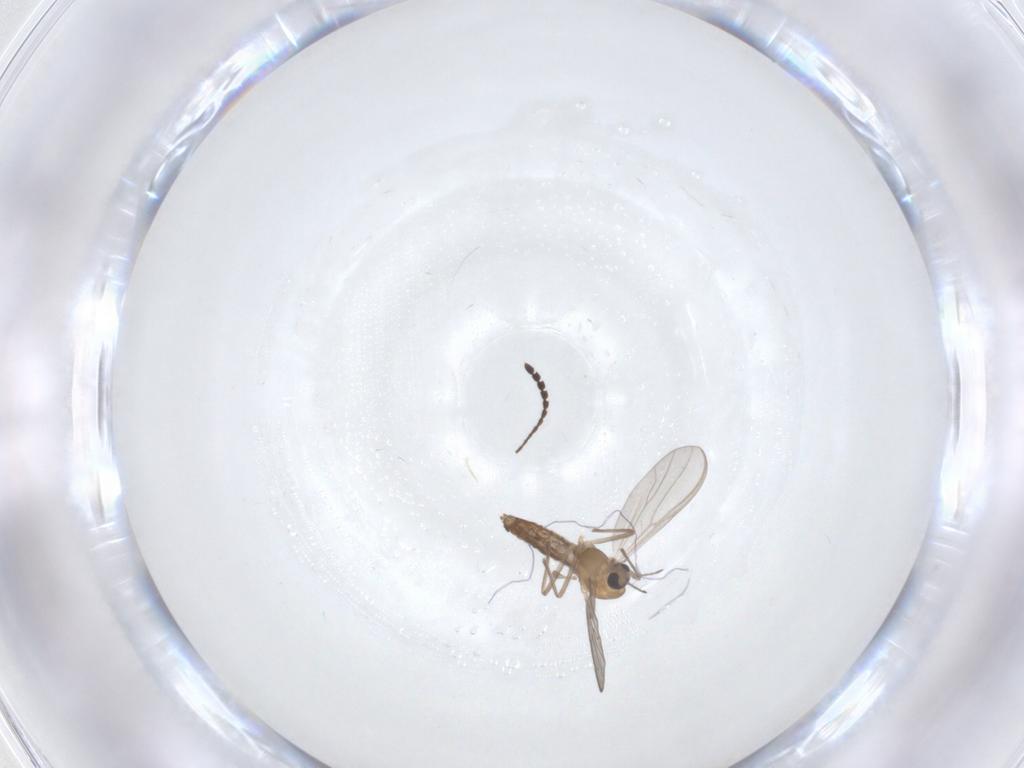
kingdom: Animalia
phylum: Arthropoda
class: Insecta
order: Diptera
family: Chironomidae
